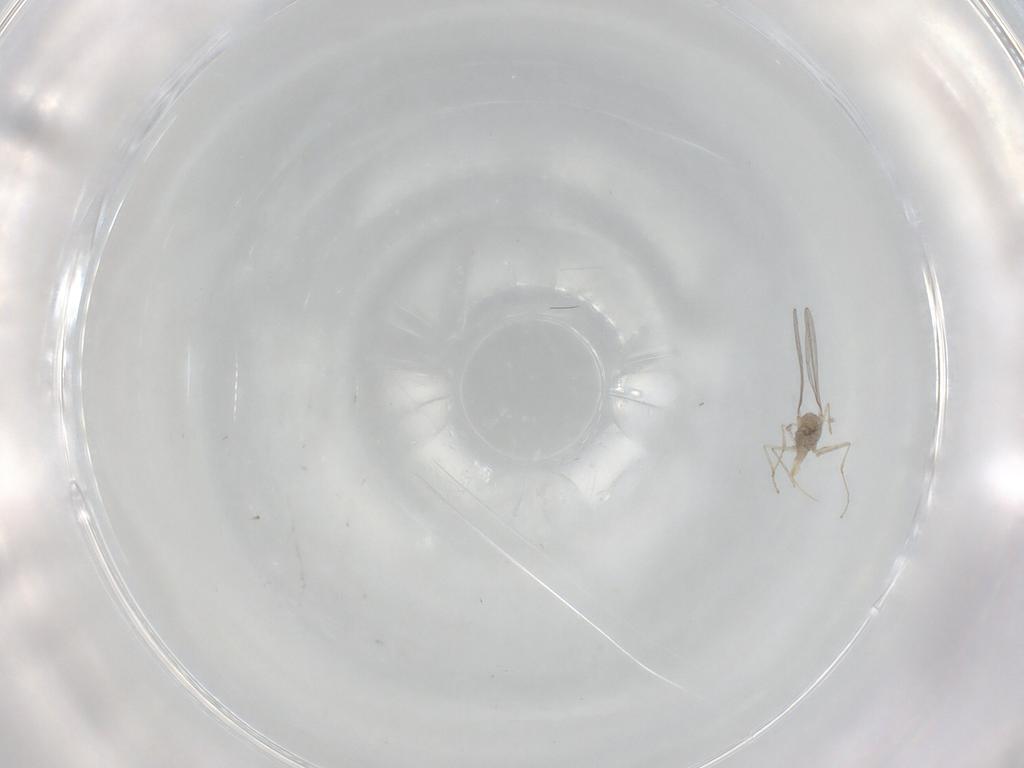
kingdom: Animalia
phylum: Arthropoda
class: Insecta
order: Diptera
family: Cecidomyiidae
